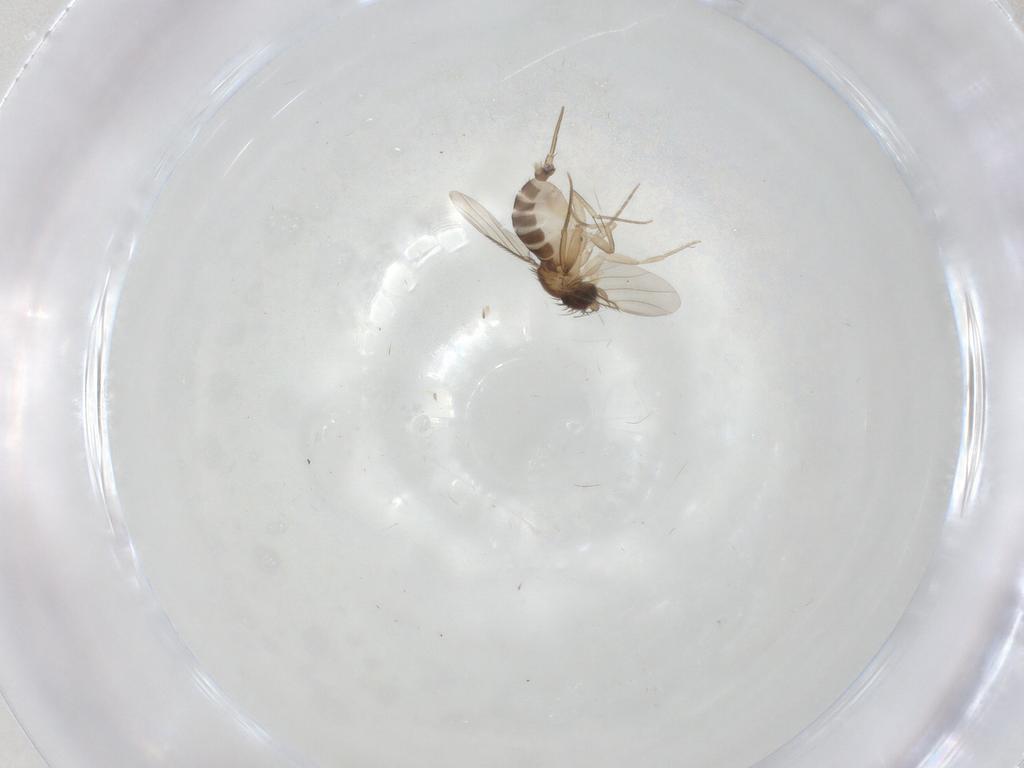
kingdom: Animalia
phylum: Arthropoda
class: Insecta
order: Diptera
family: Phoridae
